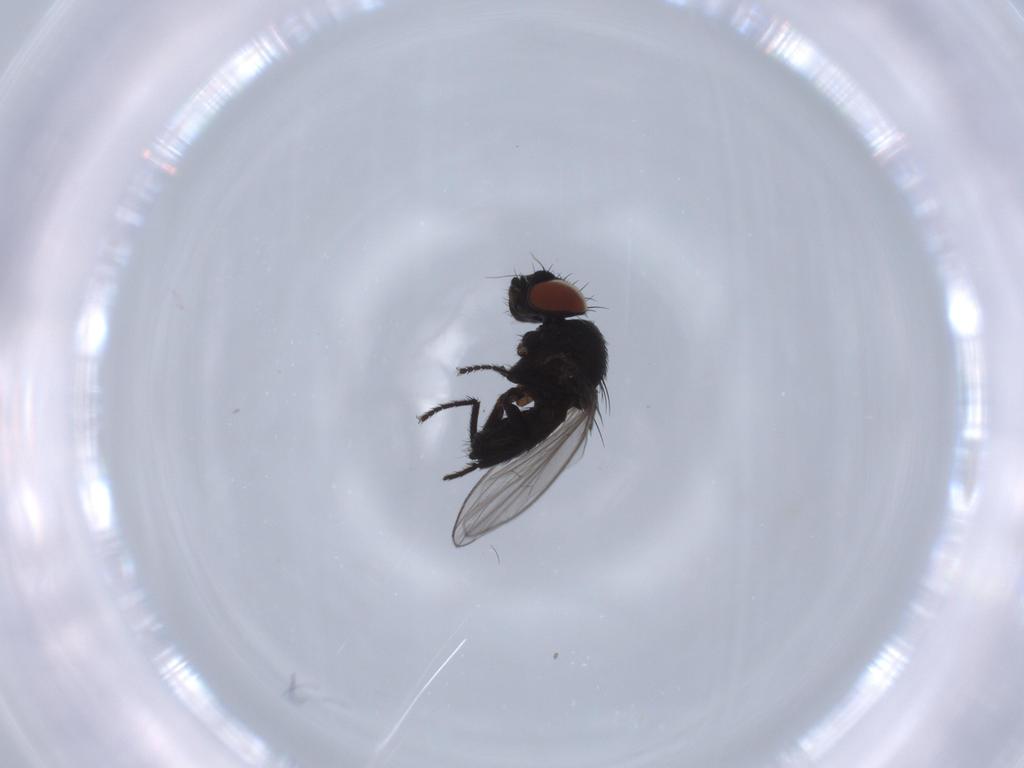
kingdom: Animalia
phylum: Arthropoda
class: Insecta
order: Diptera
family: Milichiidae
